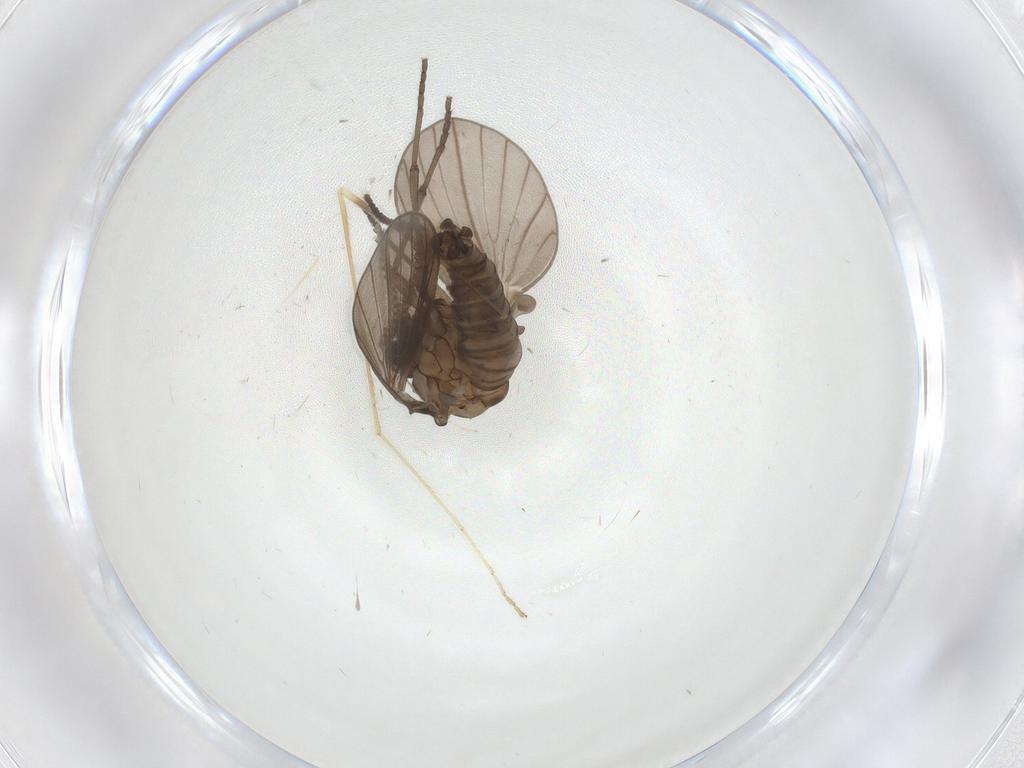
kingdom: Animalia
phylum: Arthropoda
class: Insecta
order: Diptera
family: Psychodidae
